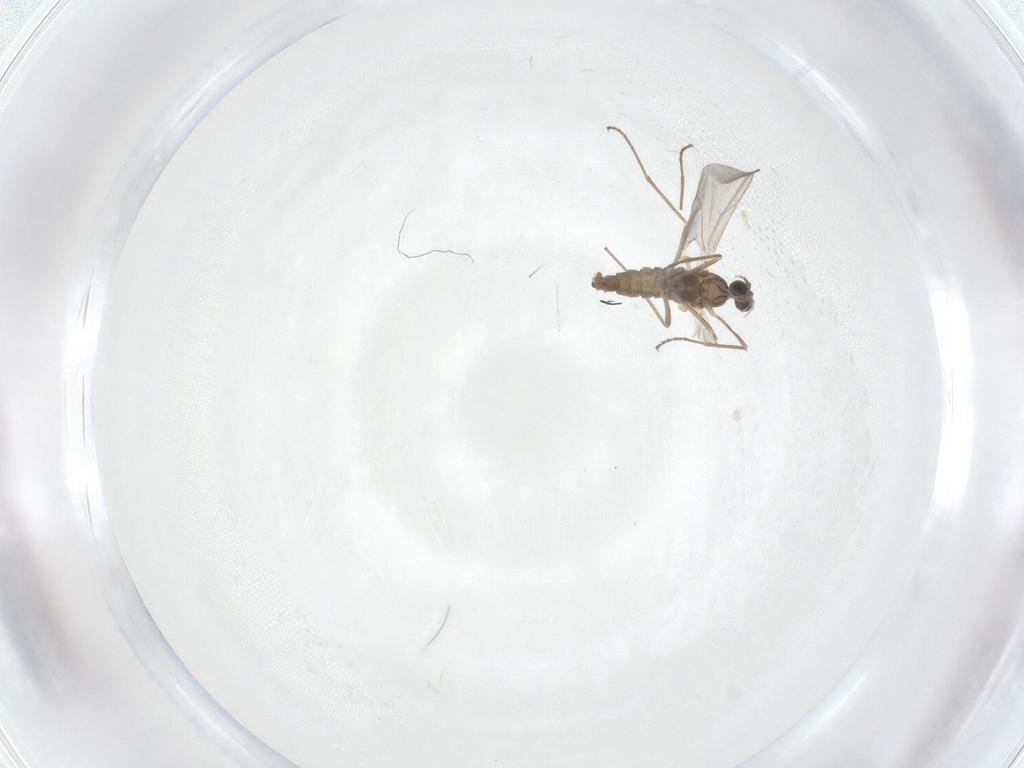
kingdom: Animalia
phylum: Arthropoda
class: Insecta
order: Diptera
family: Cecidomyiidae
